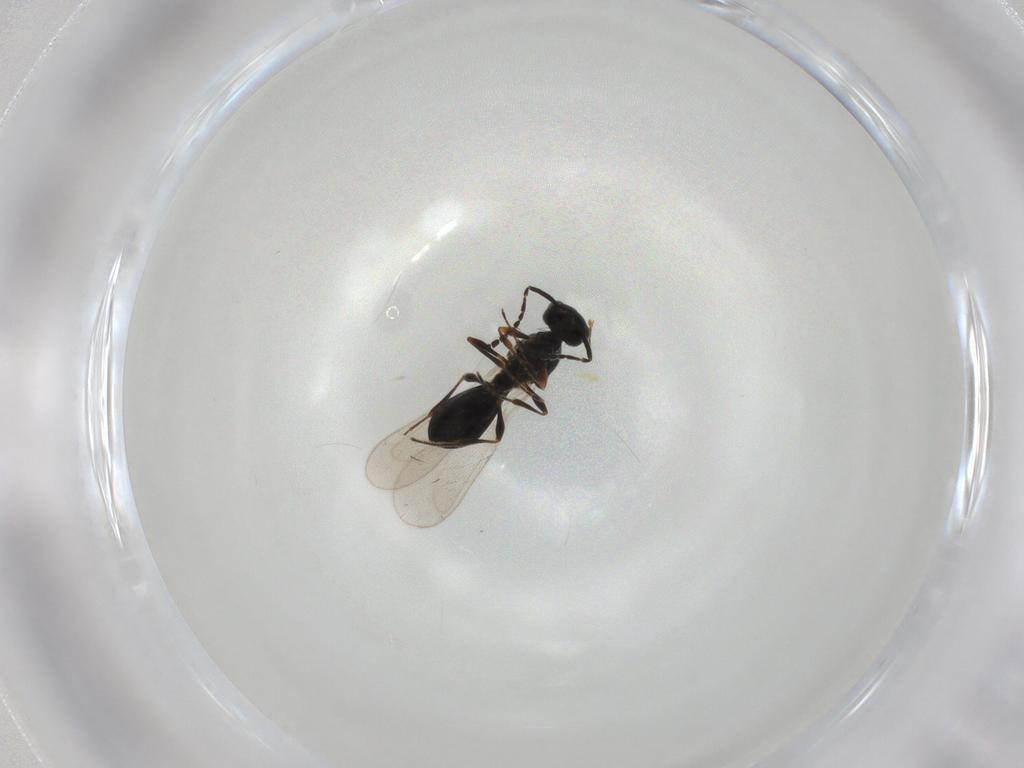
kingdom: Animalia
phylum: Arthropoda
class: Insecta
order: Hymenoptera
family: Platygastridae
